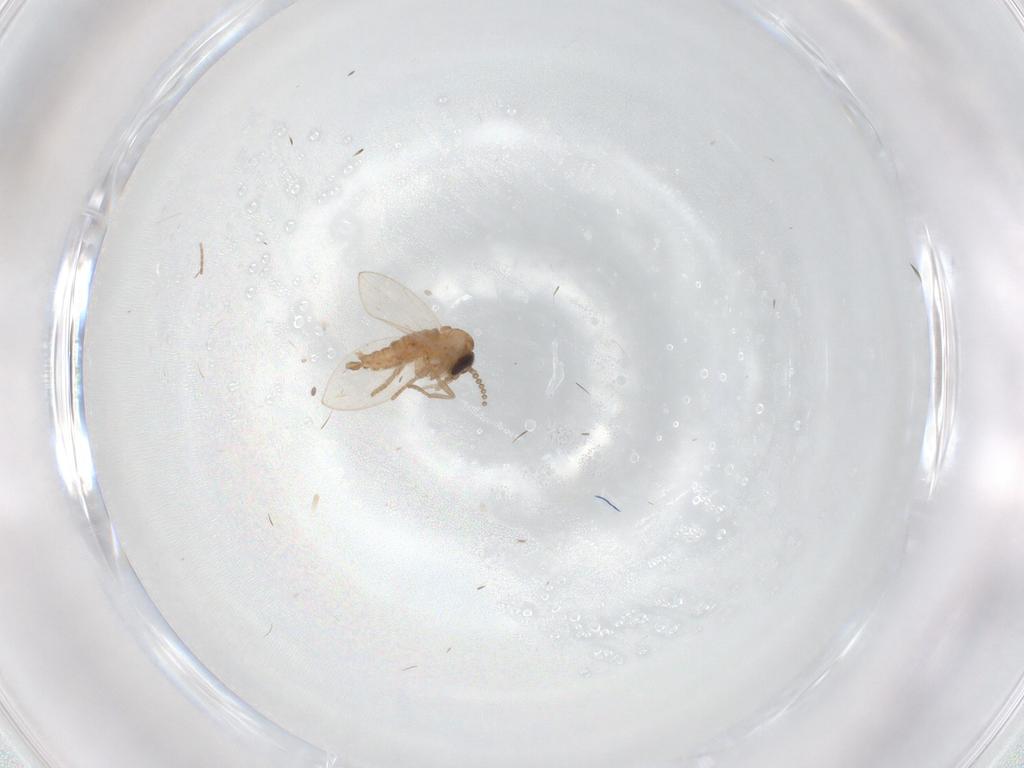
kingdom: Animalia
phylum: Arthropoda
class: Insecta
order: Diptera
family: Psychodidae
